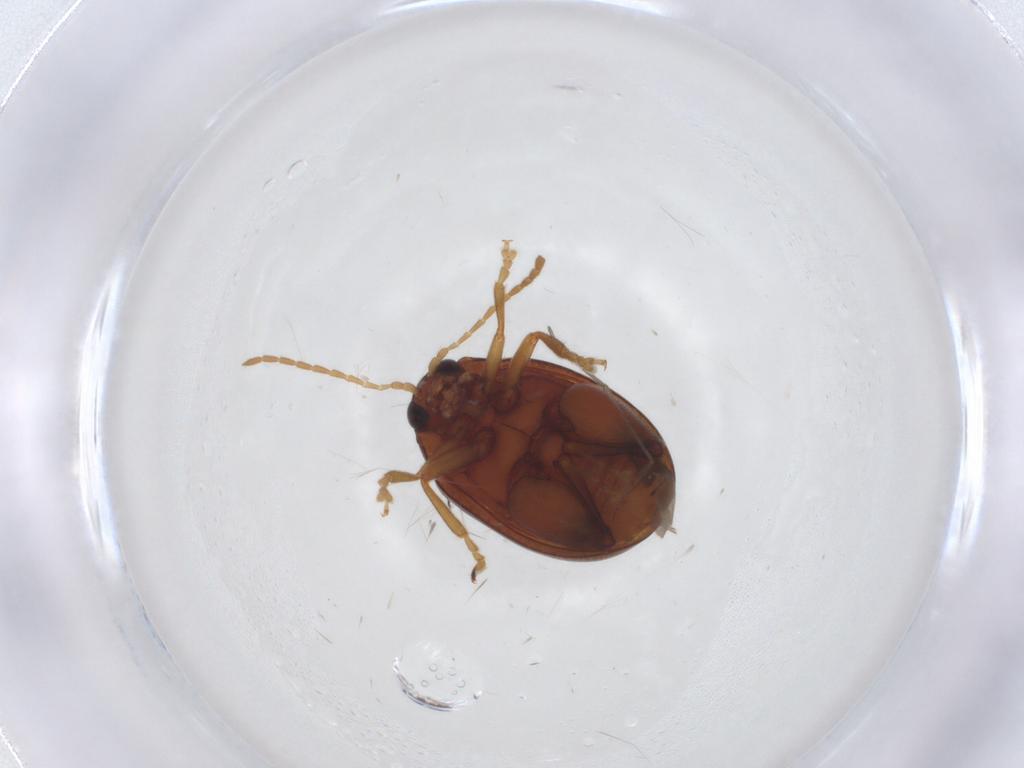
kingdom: Animalia
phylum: Arthropoda
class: Insecta
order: Coleoptera
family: Chrysomelidae
